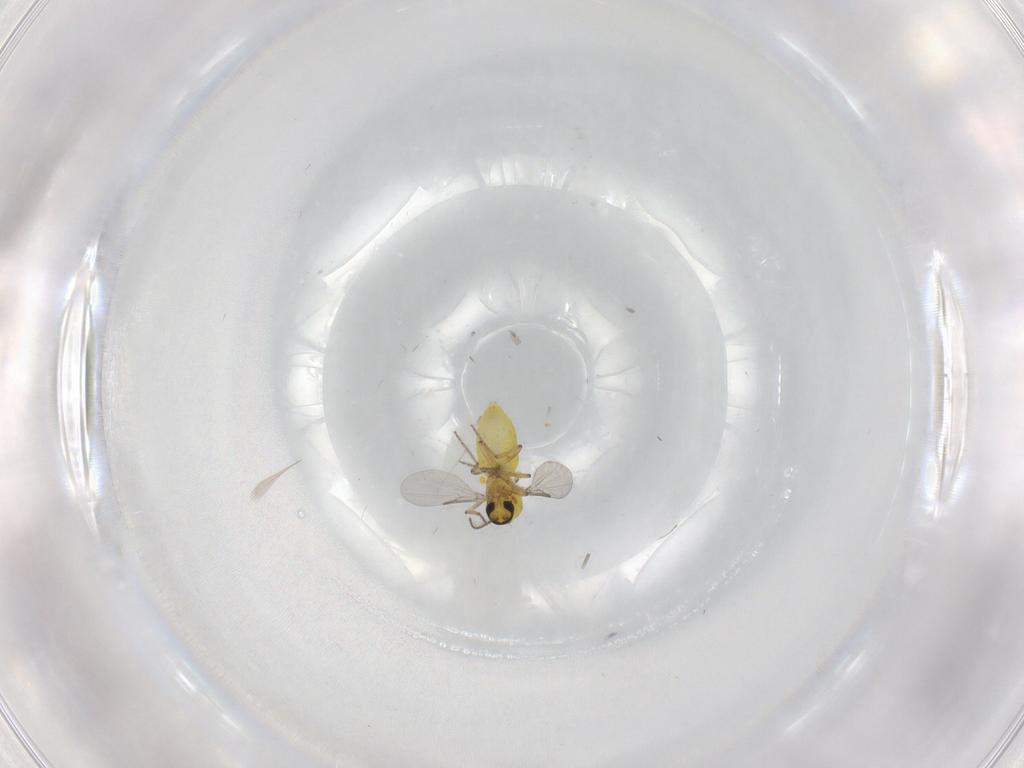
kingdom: Animalia
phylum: Arthropoda
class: Insecta
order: Diptera
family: Ceratopogonidae
